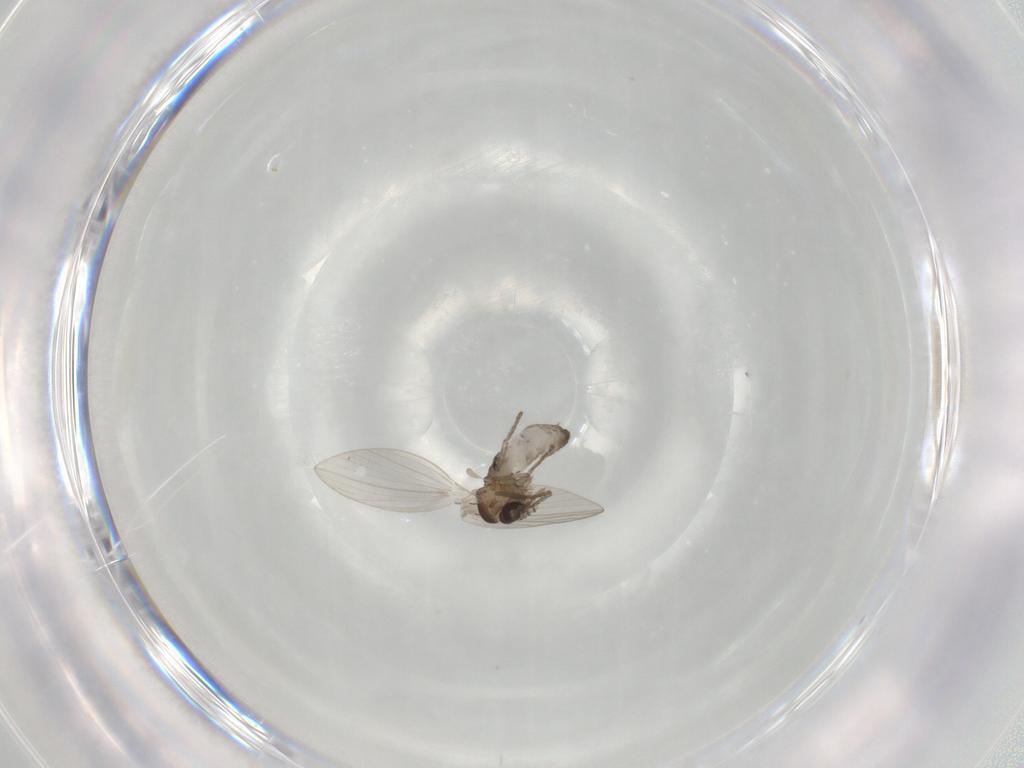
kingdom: Animalia
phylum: Arthropoda
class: Insecta
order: Diptera
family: Psychodidae
